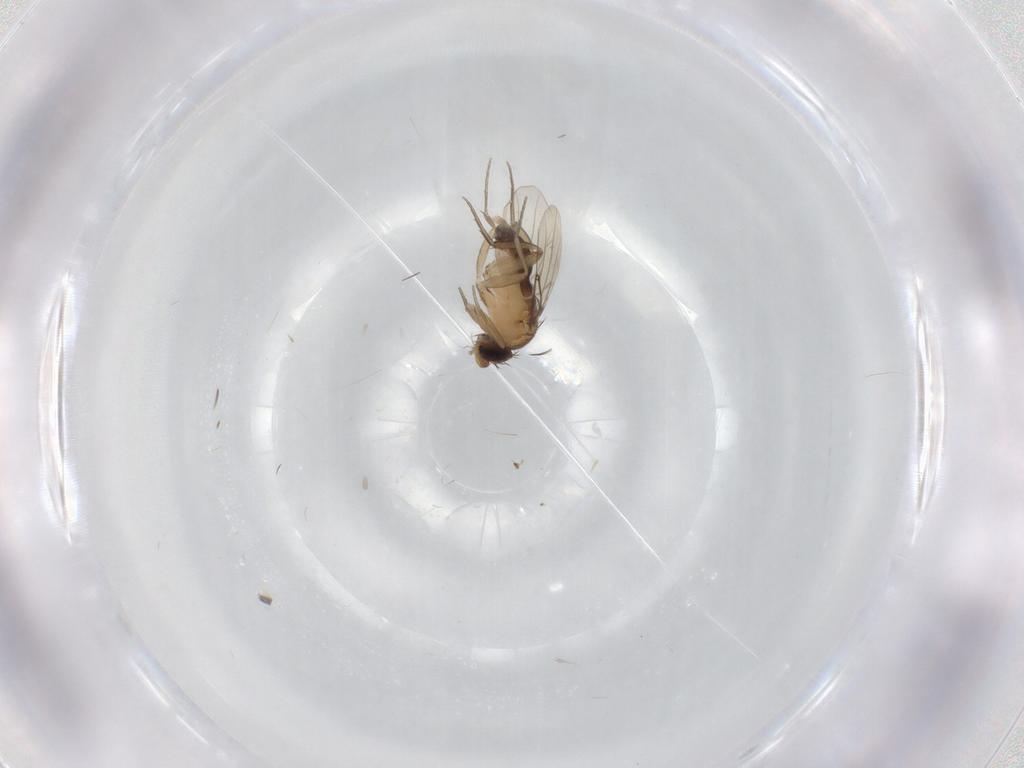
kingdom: Animalia
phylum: Arthropoda
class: Insecta
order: Diptera
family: Phoridae
